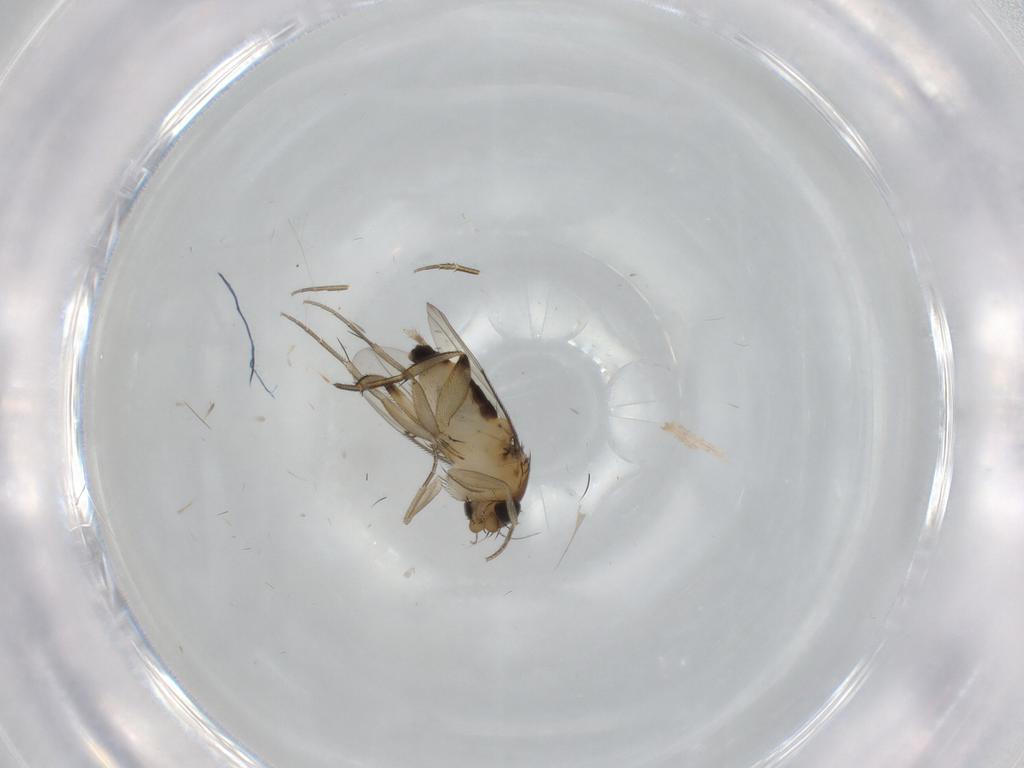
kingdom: Animalia
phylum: Arthropoda
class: Insecta
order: Diptera
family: Phoridae
